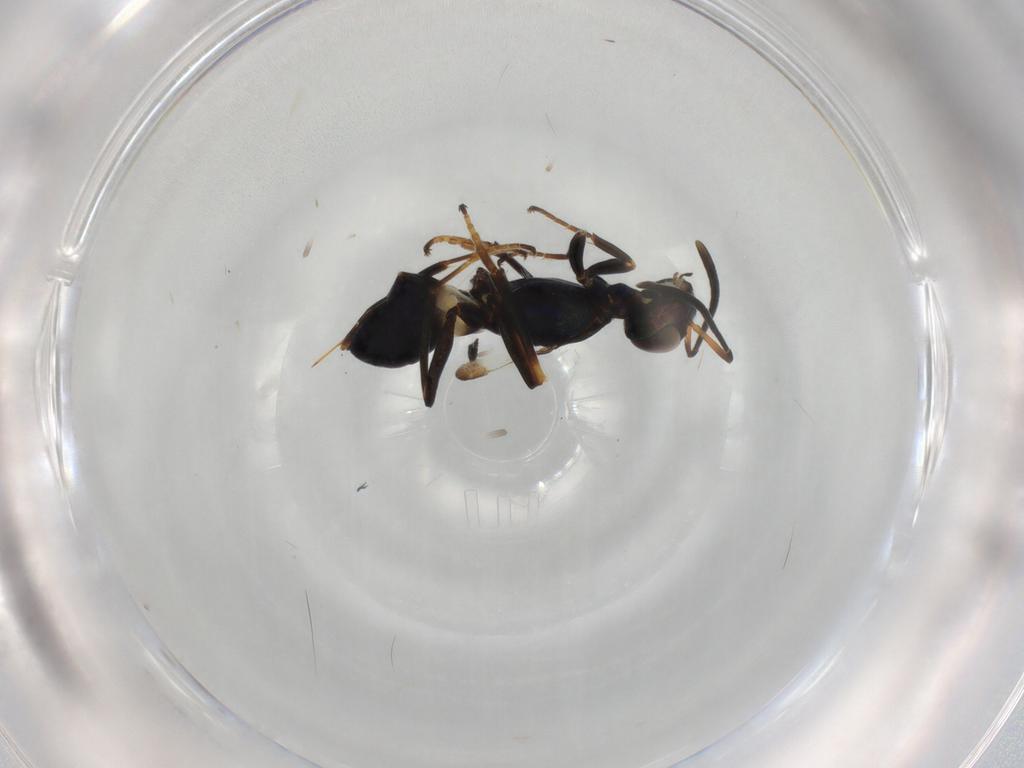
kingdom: Animalia
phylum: Arthropoda
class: Insecta
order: Hymenoptera
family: Eupelmidae
